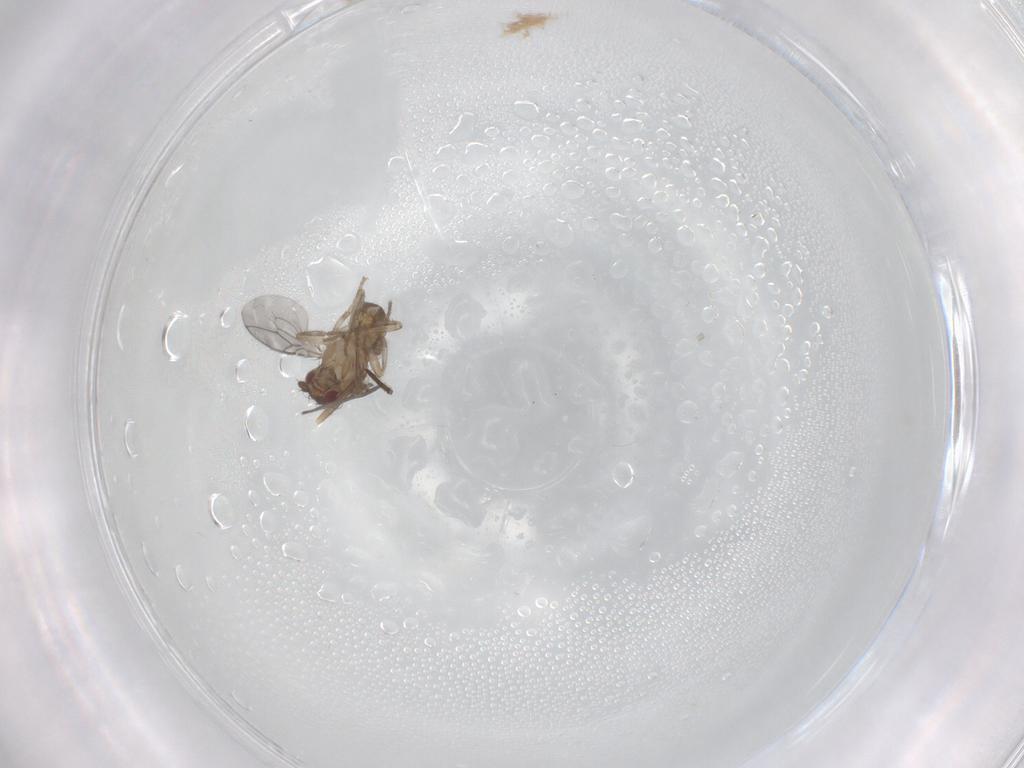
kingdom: Animalia
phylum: Arthropoda
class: Insecta
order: Diptera
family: Sphaeroceridae
